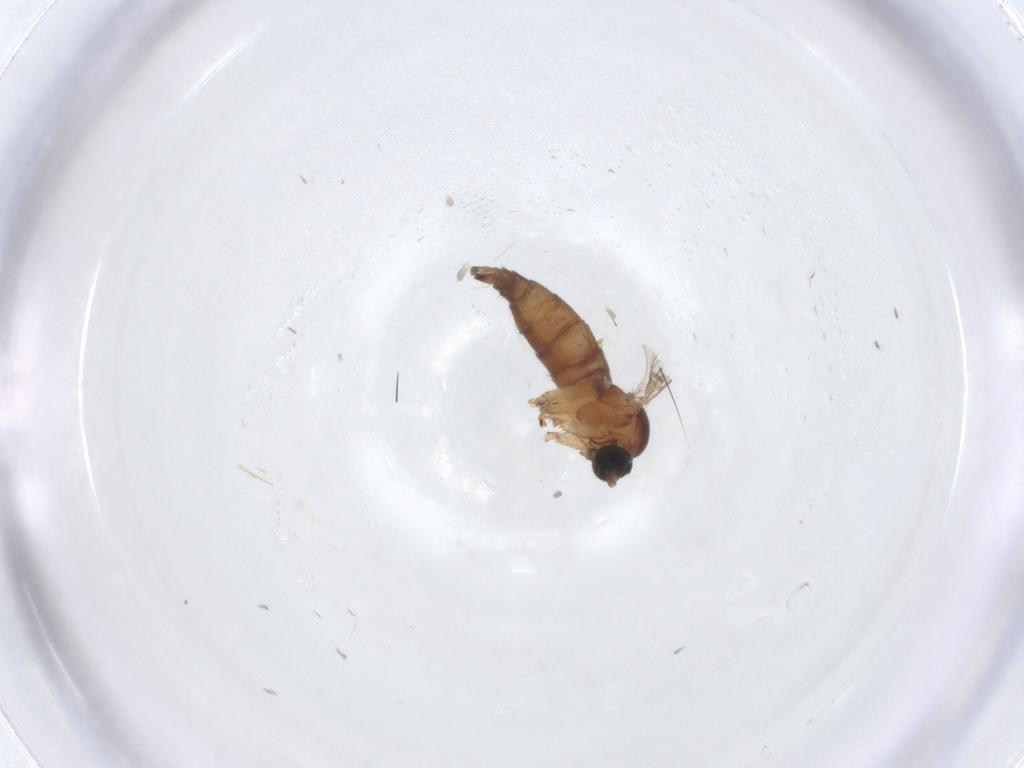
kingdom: Animalia
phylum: Arthropoda
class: Insecta
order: Diptera
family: Sciaridae
